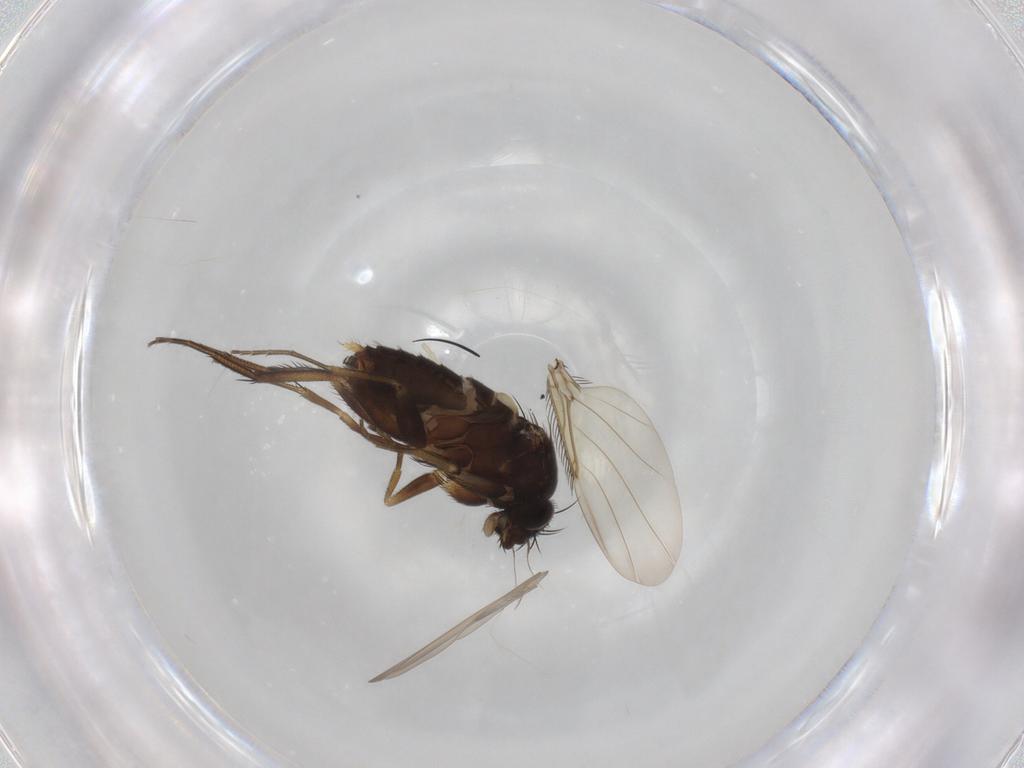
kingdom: Animalia
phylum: Arthropoda
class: Insecta
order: Diptera
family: Phoridae
